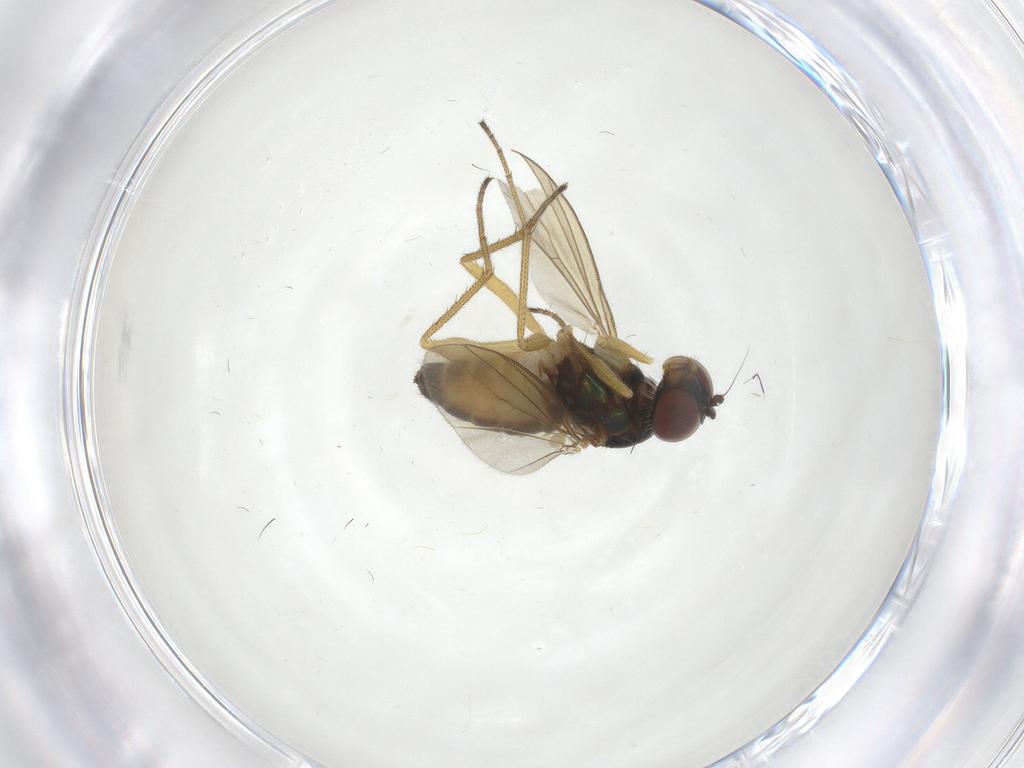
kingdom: Animalia
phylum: Arthropoda
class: Insecta
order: Diptera
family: Dolichopodidae
